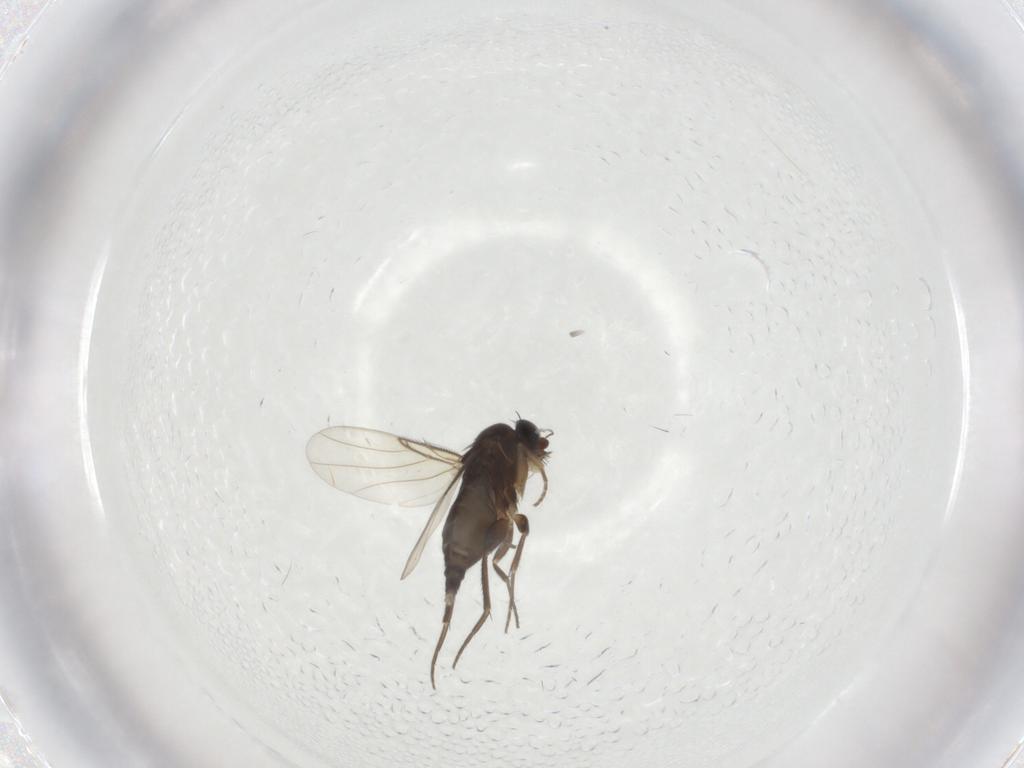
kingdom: Animalia
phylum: Arthropoda
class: Insecta
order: Diptera
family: Phoridae
